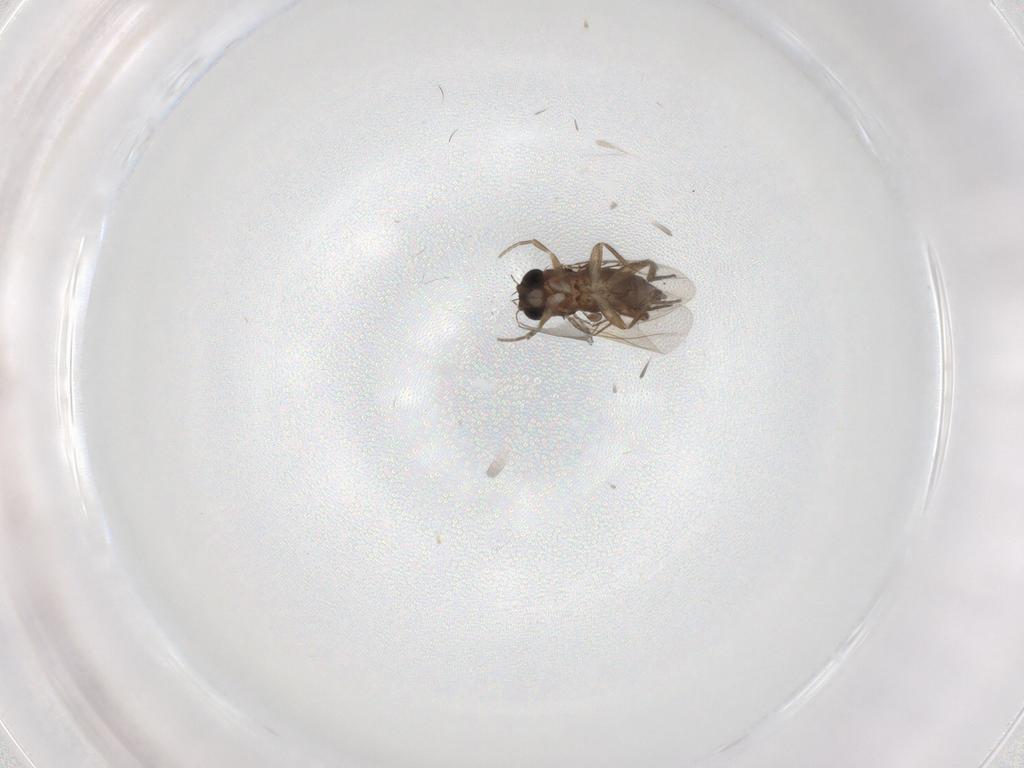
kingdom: Animalia
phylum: Arthropoda
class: Insecta
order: Diptera
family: Phoridae
